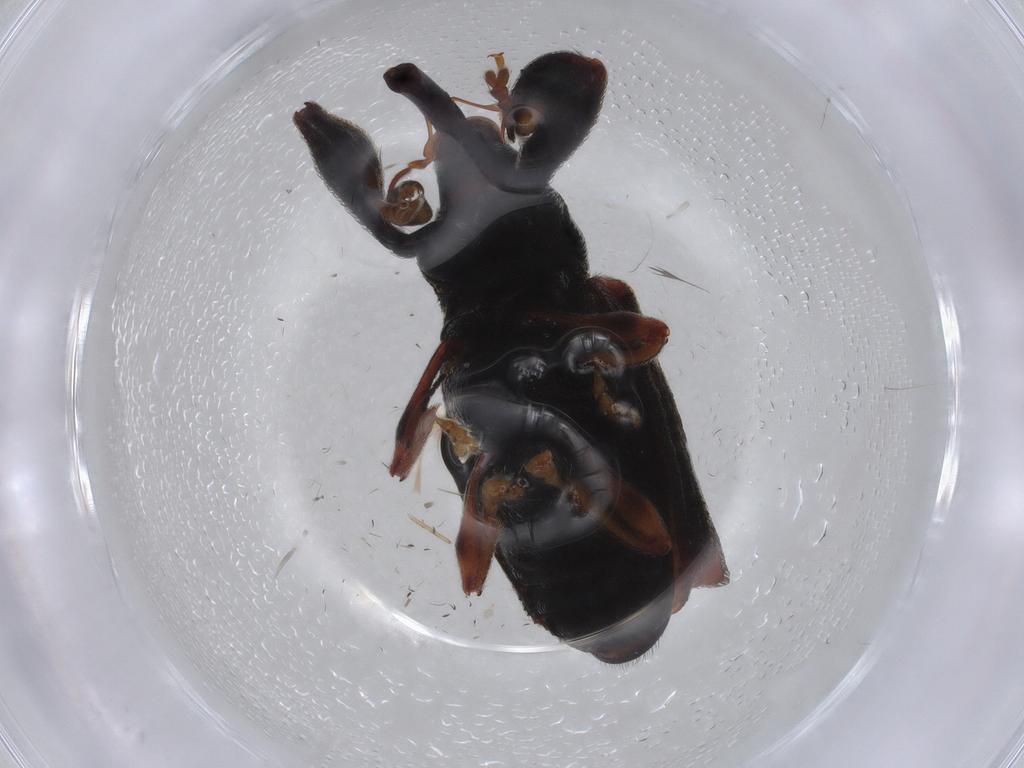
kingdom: Animalia
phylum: Arthropoda
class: Insecta
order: Coleoptera
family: Curculionidae
